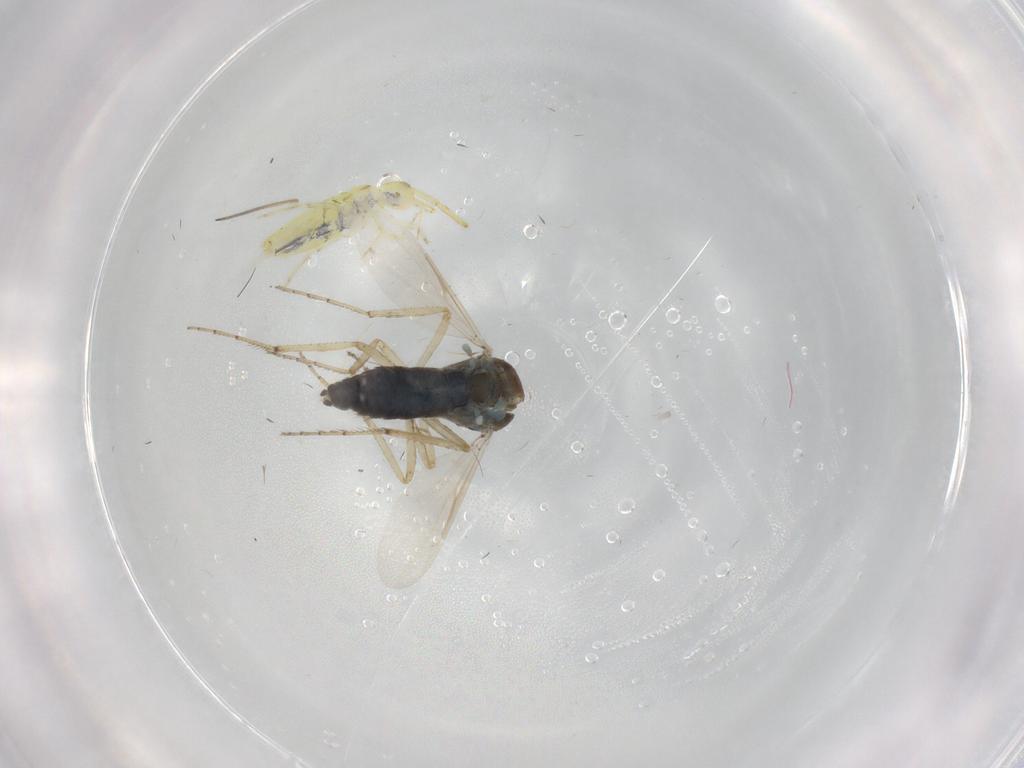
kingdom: Animalia
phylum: Arthropoda
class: Insecta
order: Diptera
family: Ceratopogonidae
